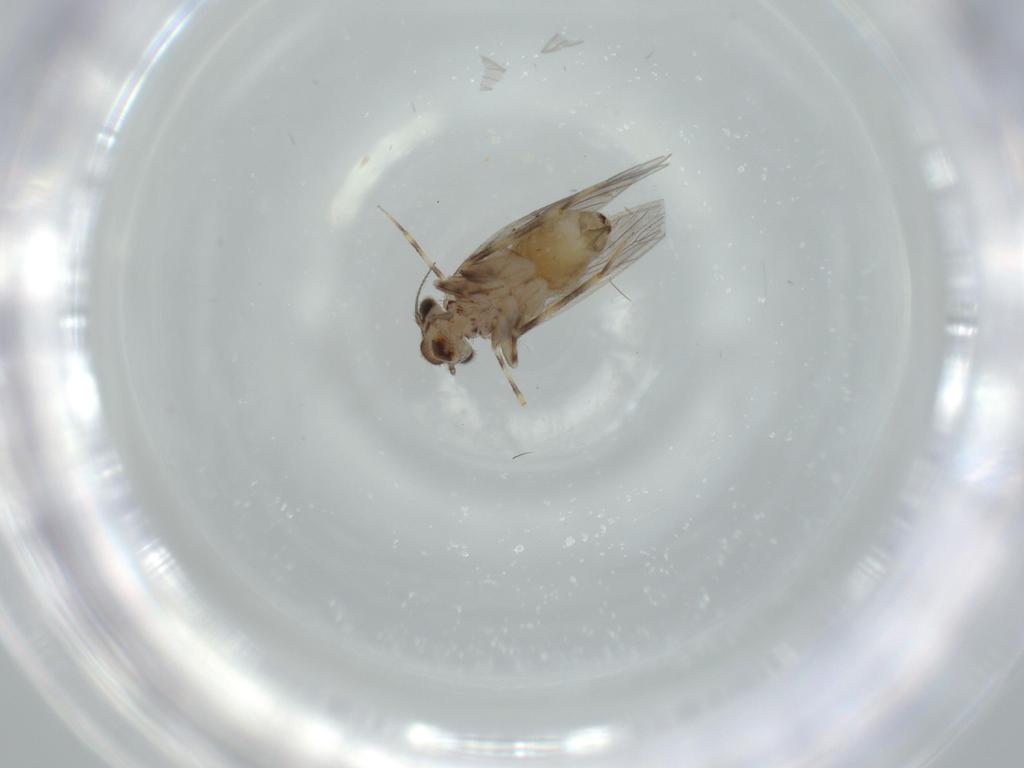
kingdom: Animalia
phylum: Arthropoda
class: Insecta
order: Psocodea
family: Lepidopsocidae
